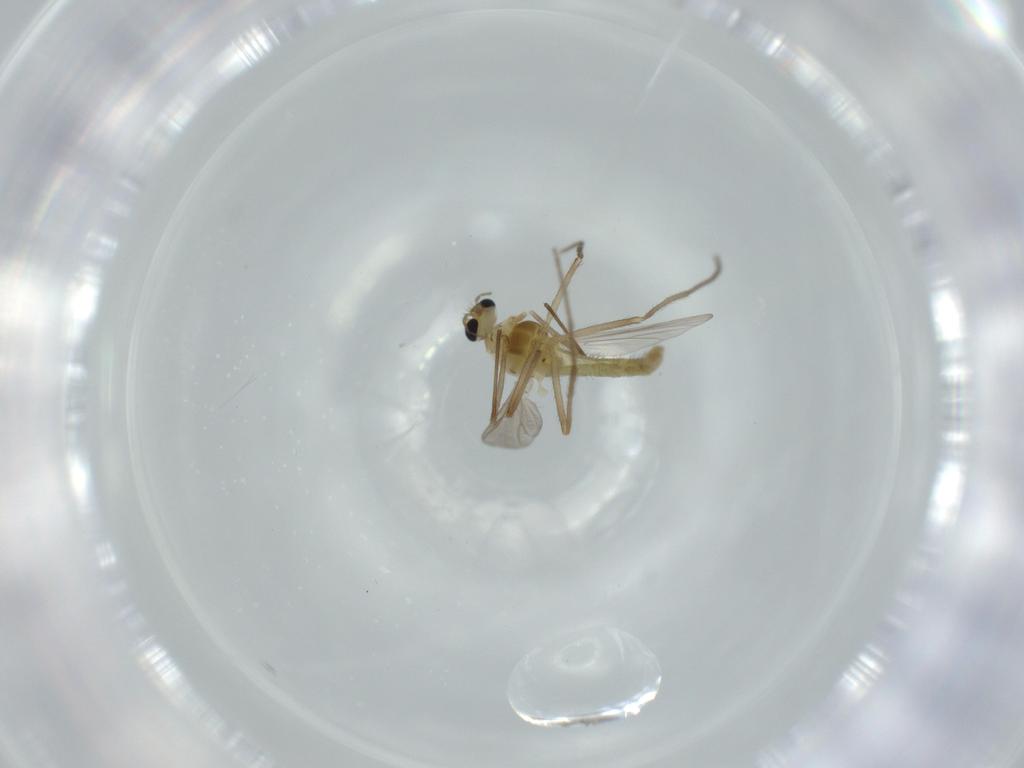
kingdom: Animalia
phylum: Arthropoda
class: Insecta
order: Diptera
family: Chironomidae
